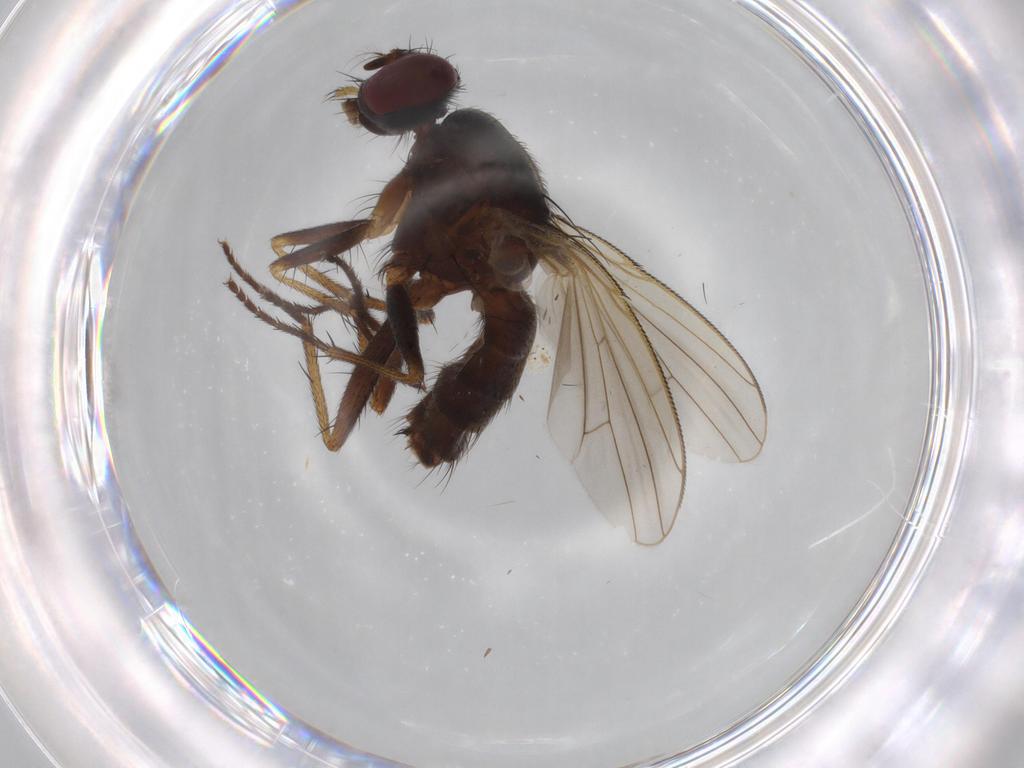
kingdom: Animalia
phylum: Arthropoda
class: Insecta
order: Diptera
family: Muscidae
